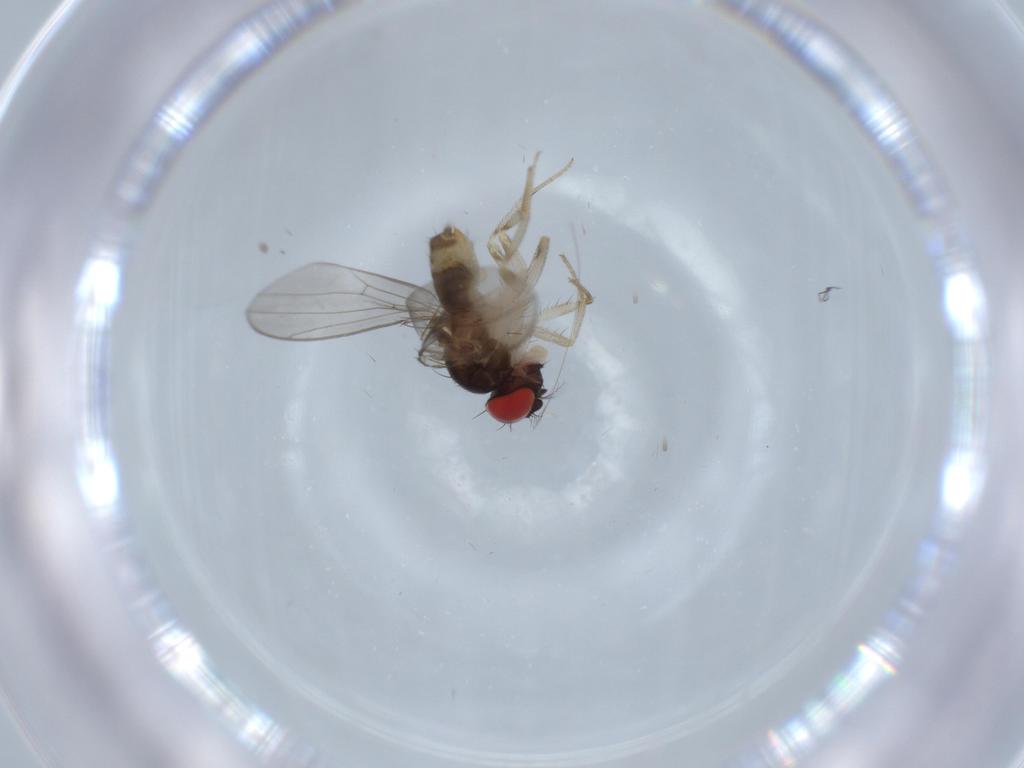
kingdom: Animalia
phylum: Arthropoda
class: Insecta
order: Diptera
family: Drosophilidae
